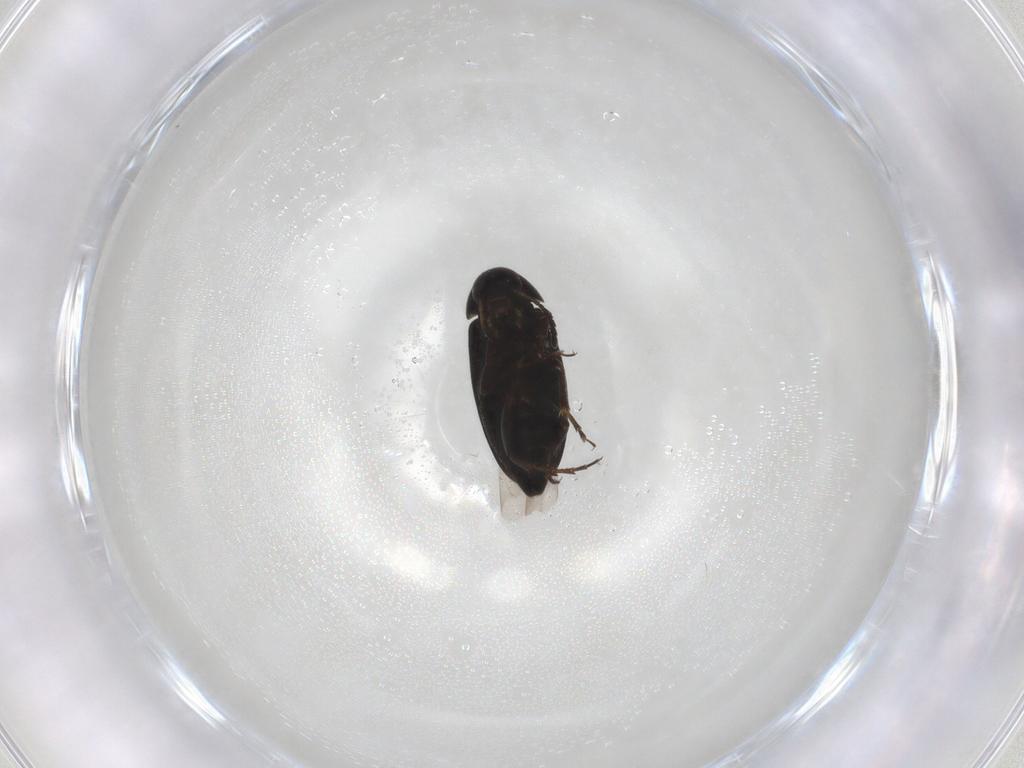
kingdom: Animalia
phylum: Arthropoda
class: Insecta
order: Coleoptera
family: Scraptiidae
